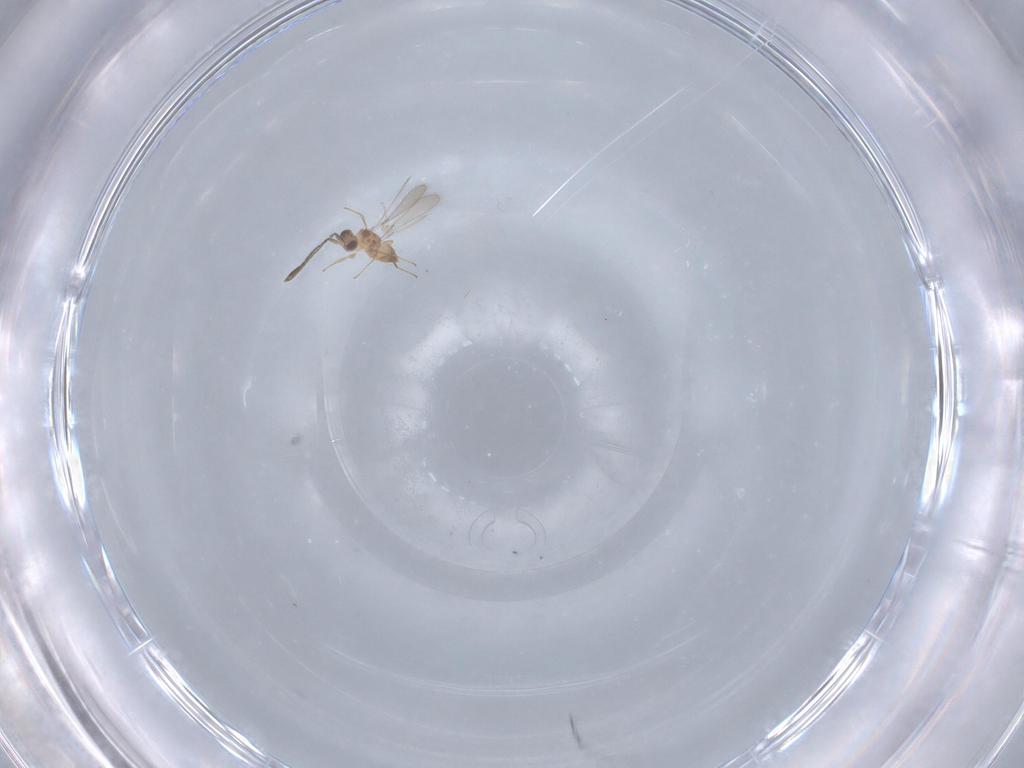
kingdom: Animalia
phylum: Arthropoda
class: Insecta
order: Hymenoptera
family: Mymaridae
